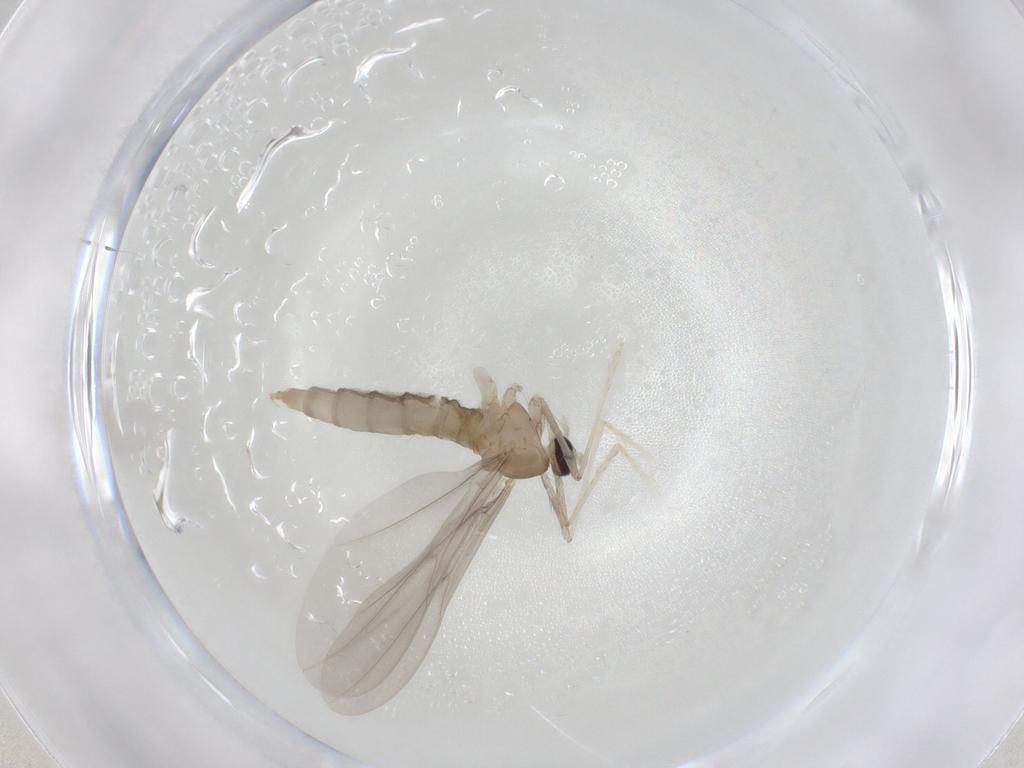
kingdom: Animalia
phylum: Arthropoda
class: Insecta
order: Diptera
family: Cecidomyiidae
